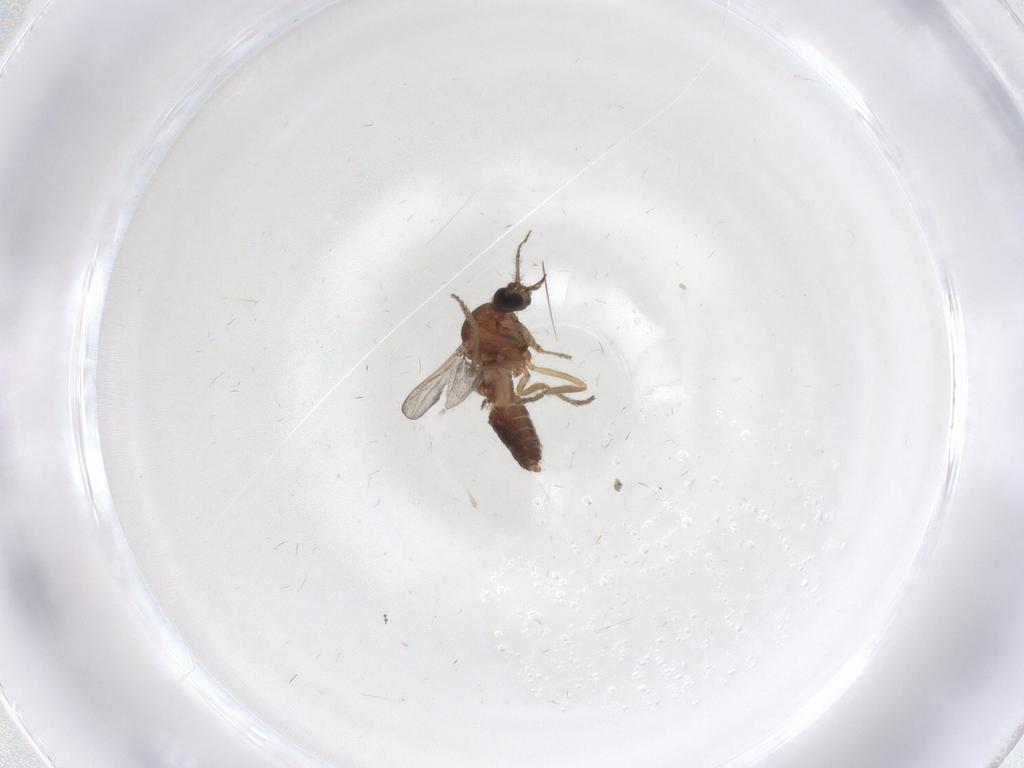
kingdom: Animalia
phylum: Arthropoda
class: Insecta
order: Diptera
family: Ceratopogonidae
